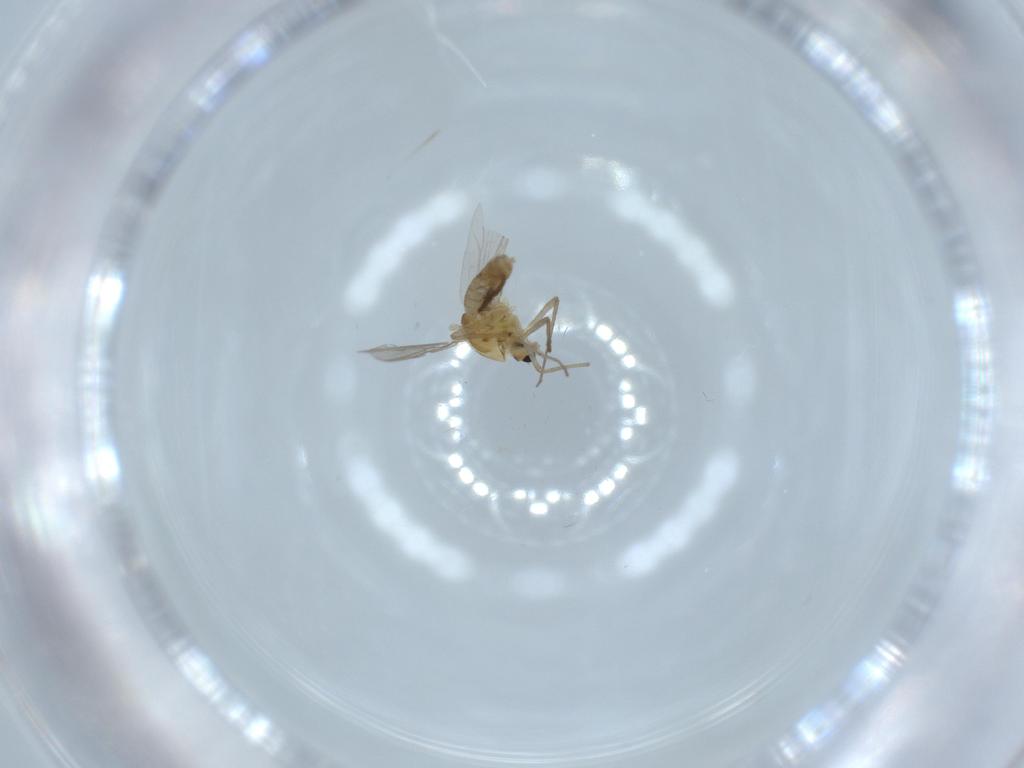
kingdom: Animalia
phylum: Arthropoda
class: Insecta
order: Diptera
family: Chironomidae
